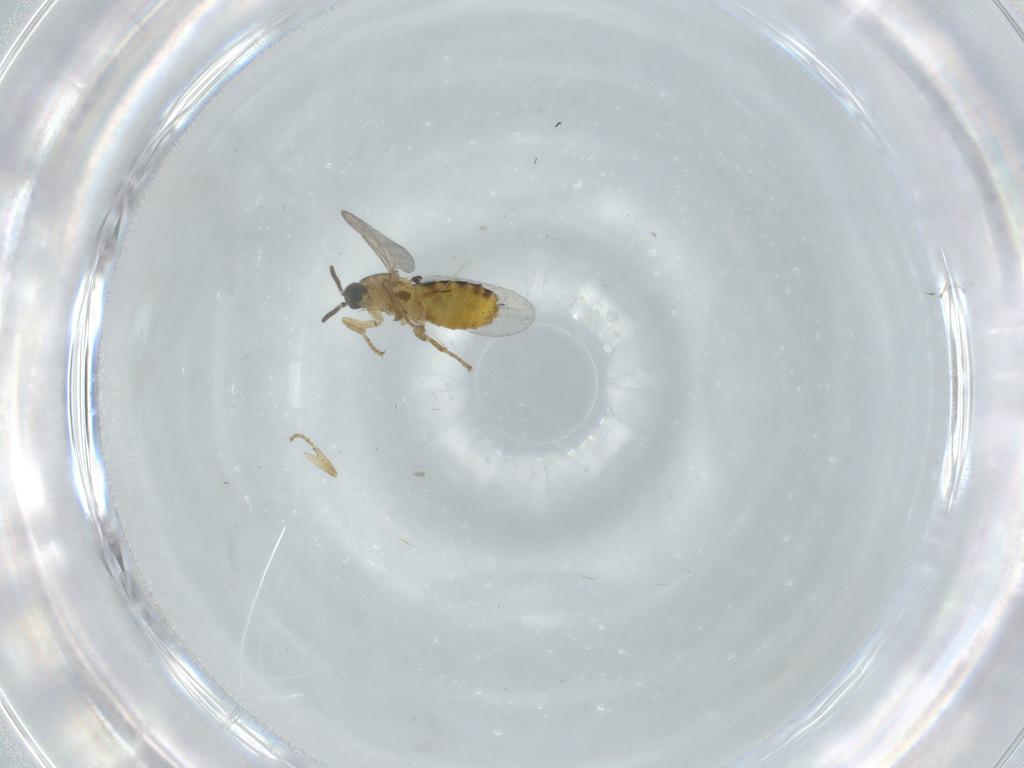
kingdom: Animalia
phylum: Arthropoda
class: Insecta
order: Diptera
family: Scatopsidae
